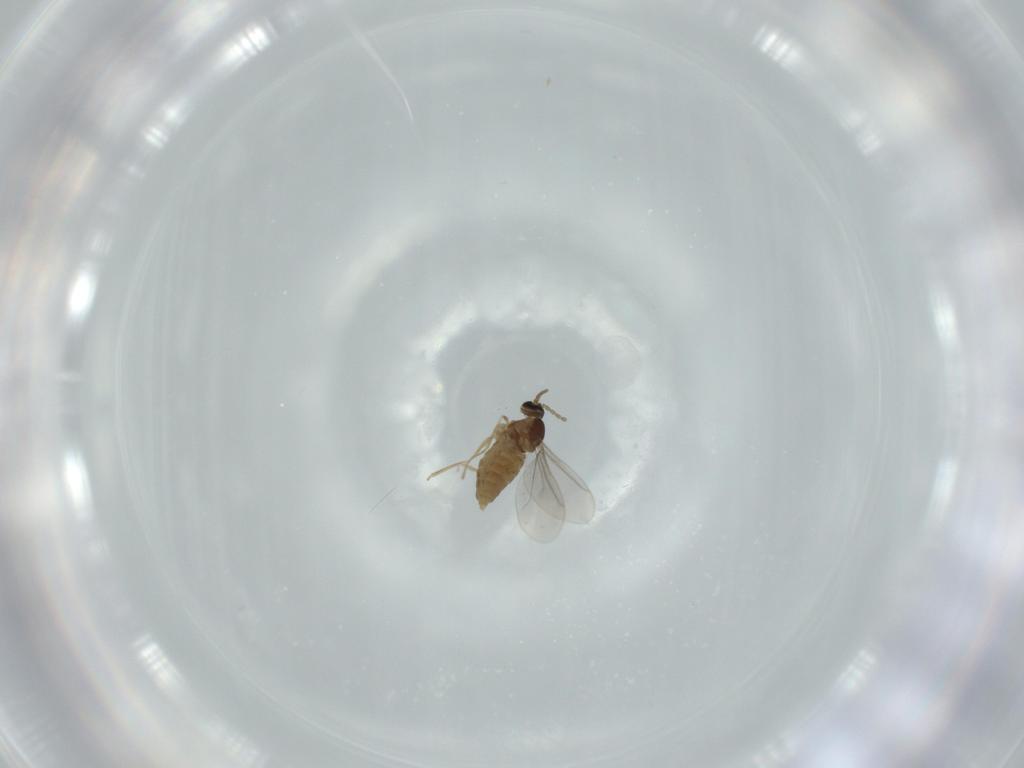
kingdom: Animalia
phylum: Arthropoda
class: Insecta
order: Diptera
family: Cecidomyiidae
